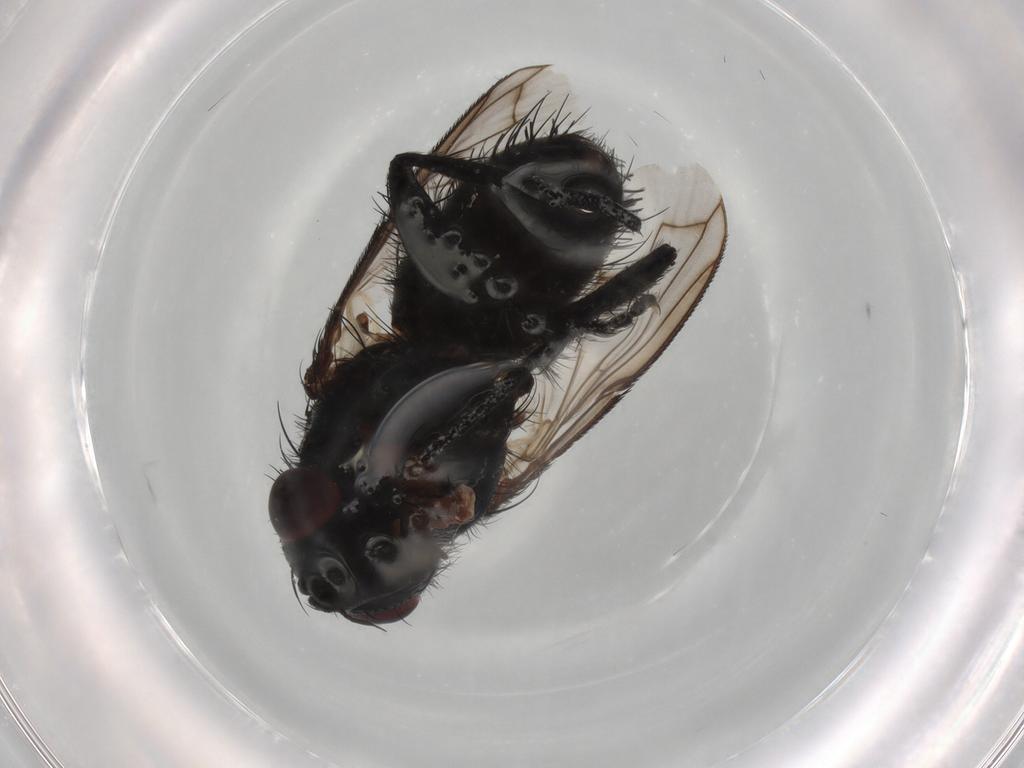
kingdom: Animalia
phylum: Arthropoda
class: Insecta
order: Diptera
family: Tachinidae
